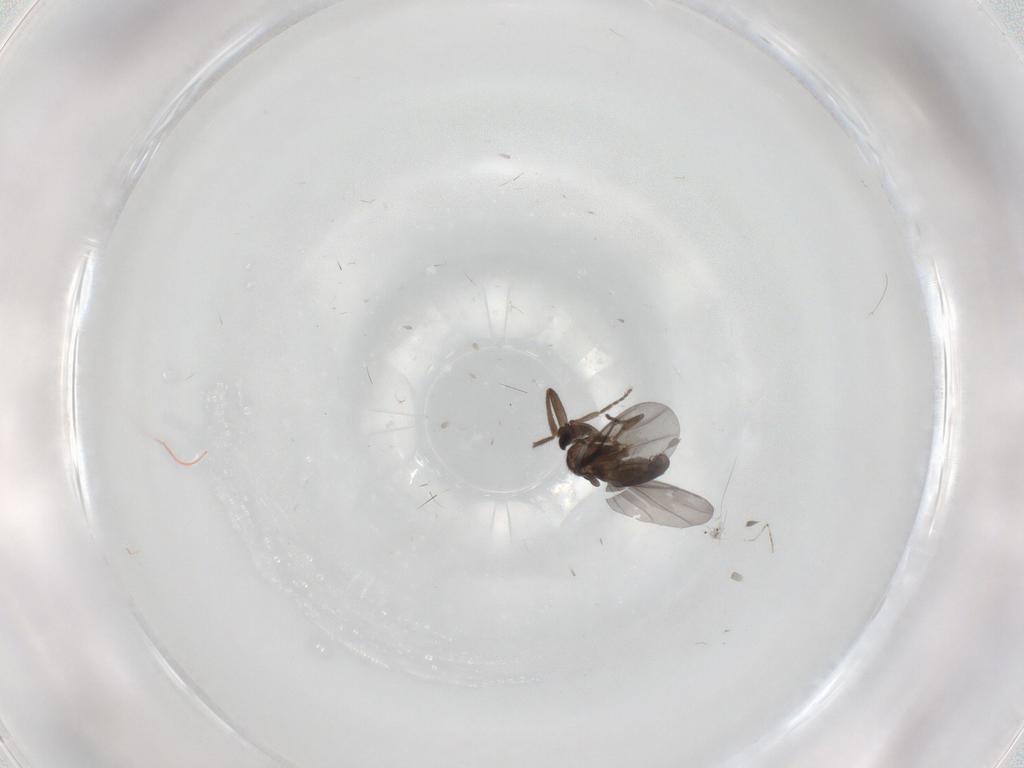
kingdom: Animalia
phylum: Arthropoda
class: Insecta
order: Diptera
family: Phoridae
